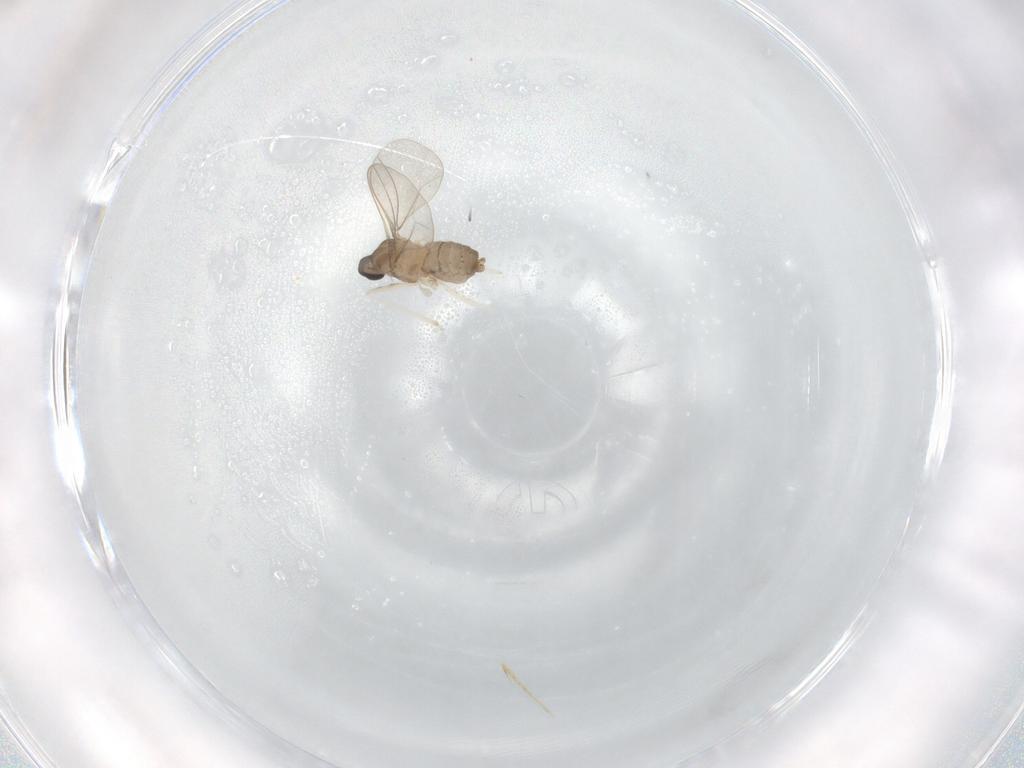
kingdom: Animalia
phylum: Arthropoda
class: Insecta
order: Diptera
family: Cecidomyiidae
